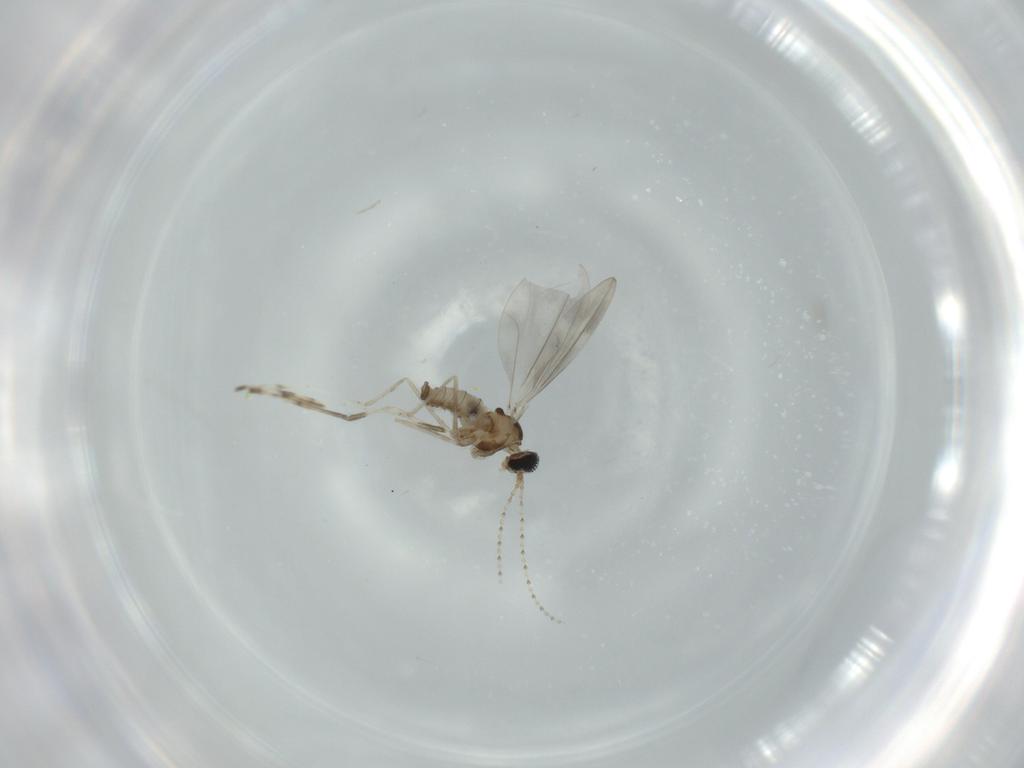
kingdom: Animalia
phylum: Arthropoda
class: Insecta
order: Diptera
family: Cecidomyiidae
